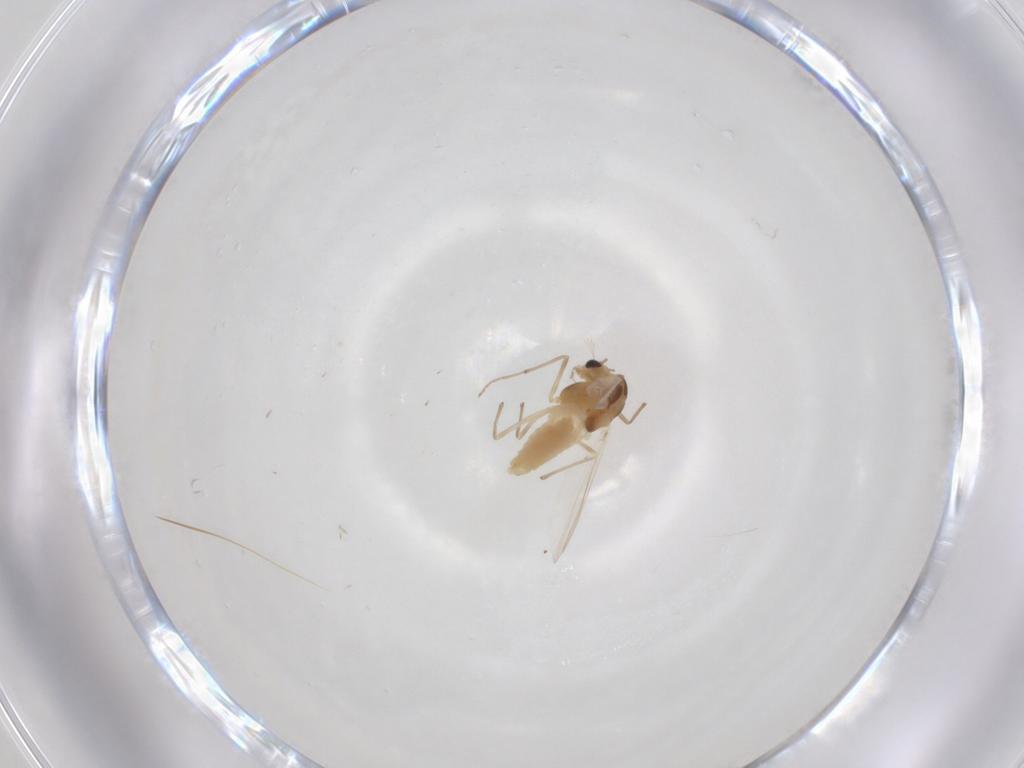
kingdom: Animalia
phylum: Arthropoda
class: Insecta
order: Diptera
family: Chironomidae
